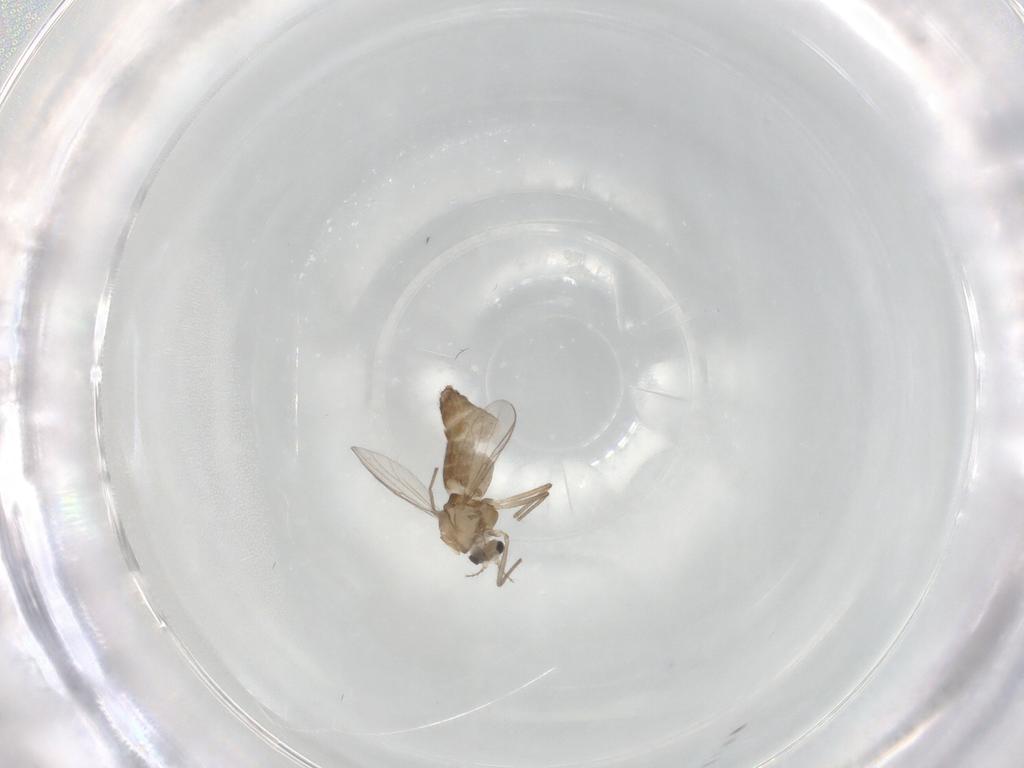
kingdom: Animalia
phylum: Arthropoda
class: Insecta
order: Diptera
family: Chironomidae
